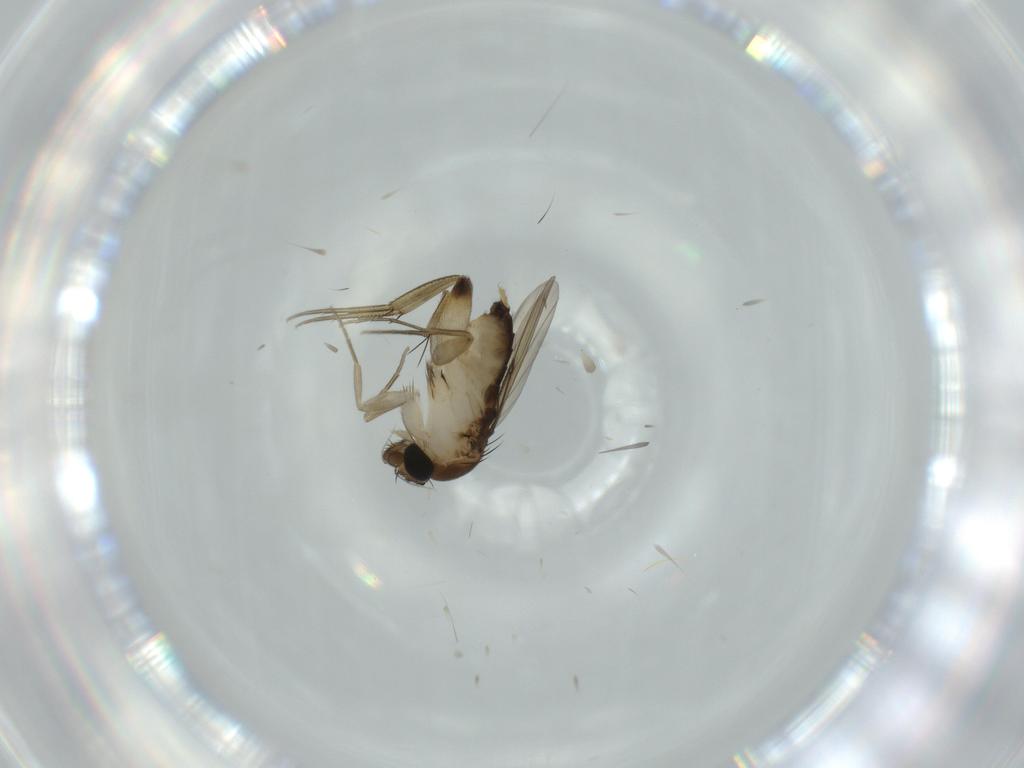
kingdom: Animalia
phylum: Arthropoda
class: Insecta
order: Diptera
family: Phoridae
